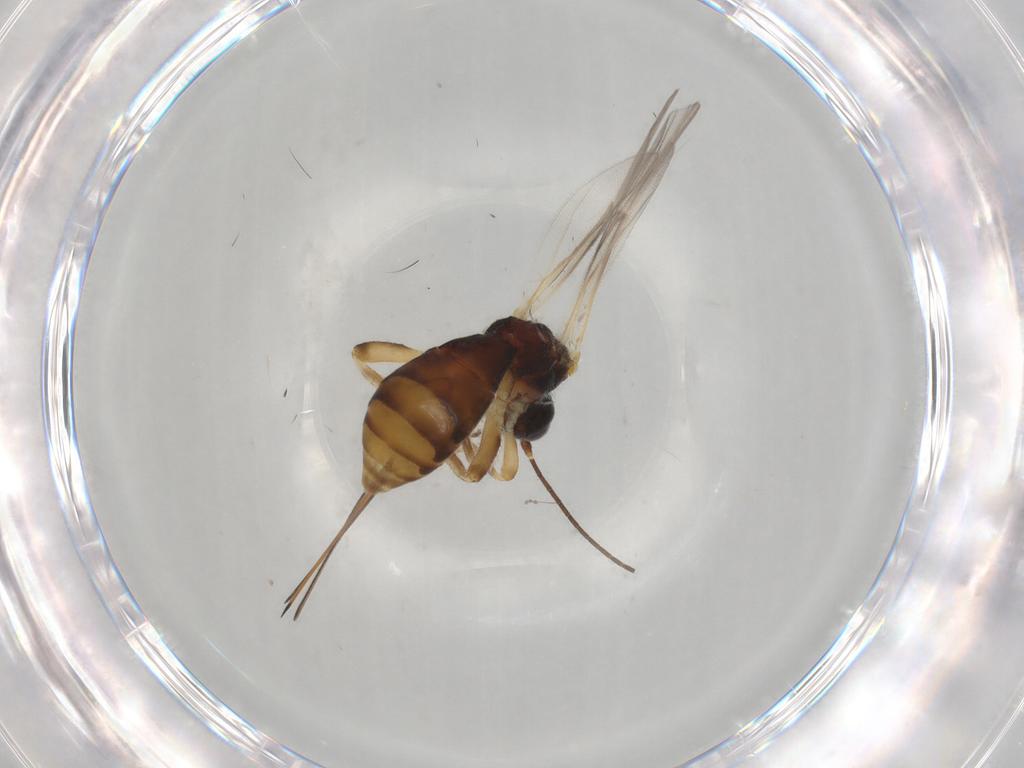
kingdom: Animalia
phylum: Arthropoda
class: Insecta
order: Hymenoptera
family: Braconidae
